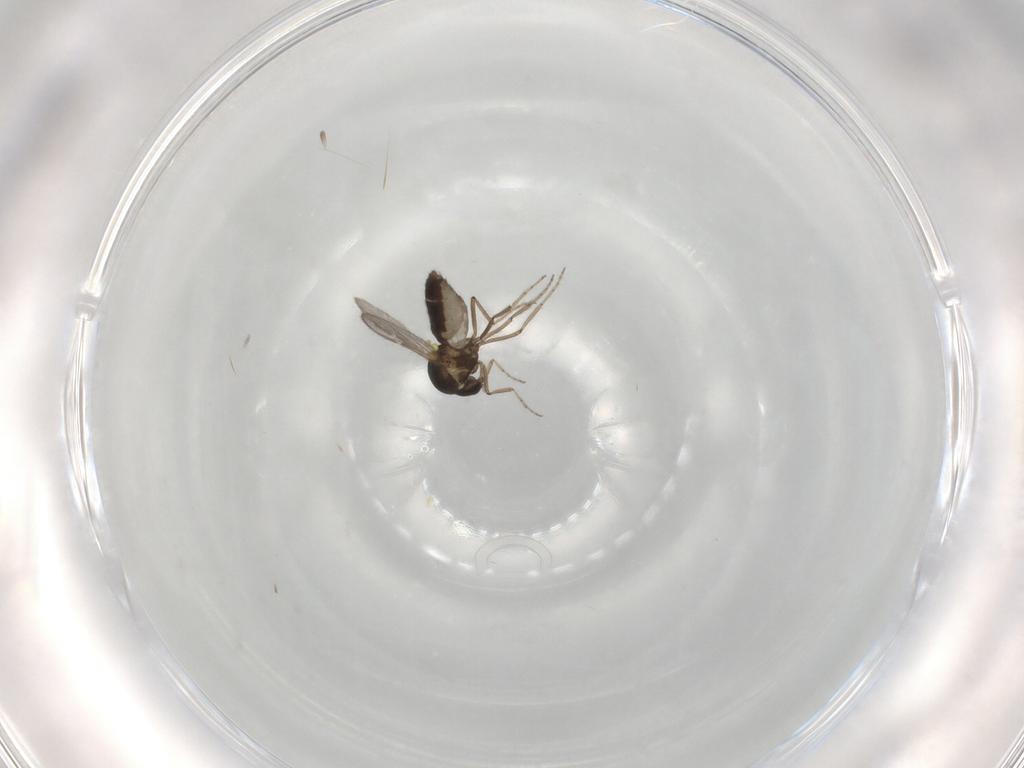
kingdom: Animalia
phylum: Arthropoda
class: Insecta
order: Diptera
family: Ceratopogonidae
